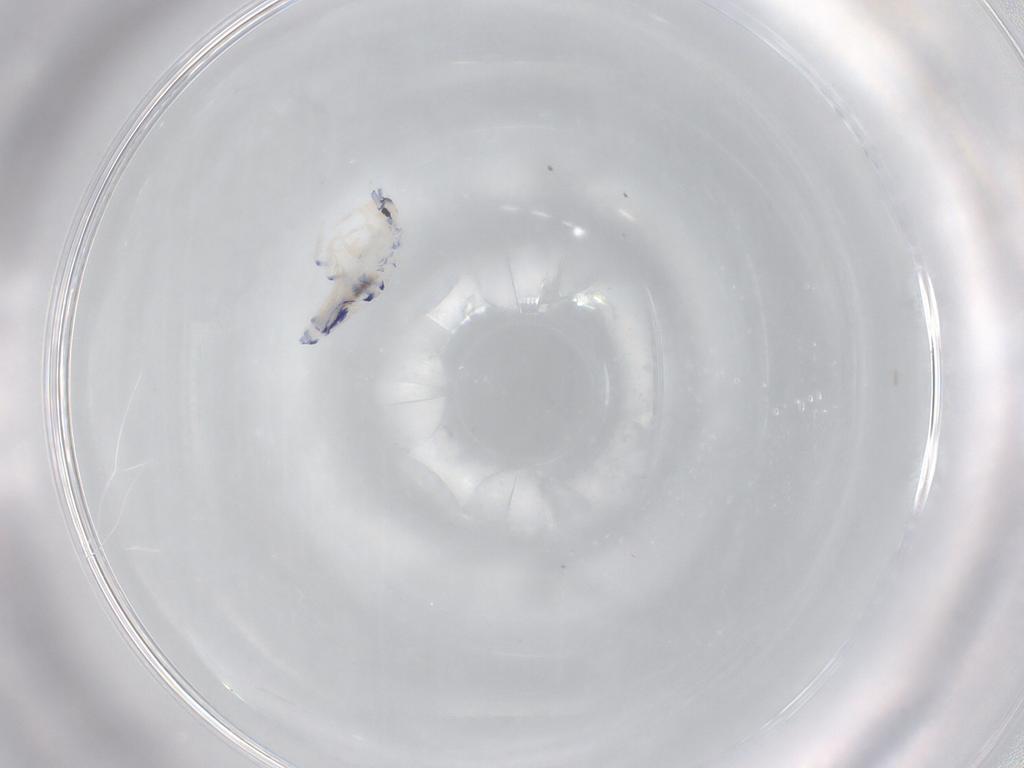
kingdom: Animalia
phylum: Arthropoda
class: Collembola
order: Entomobryomorpha
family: Entomobryidae
